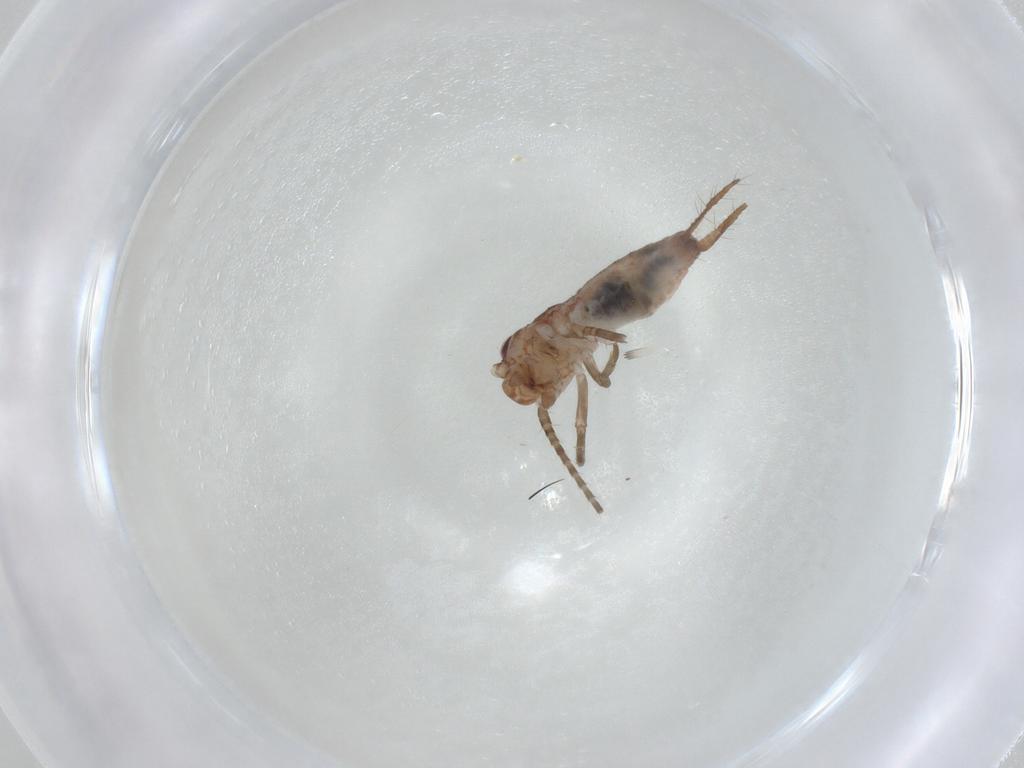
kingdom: Animalia
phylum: Arthropoda
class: Insecta
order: Orthoptera
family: Mogoplistidae
